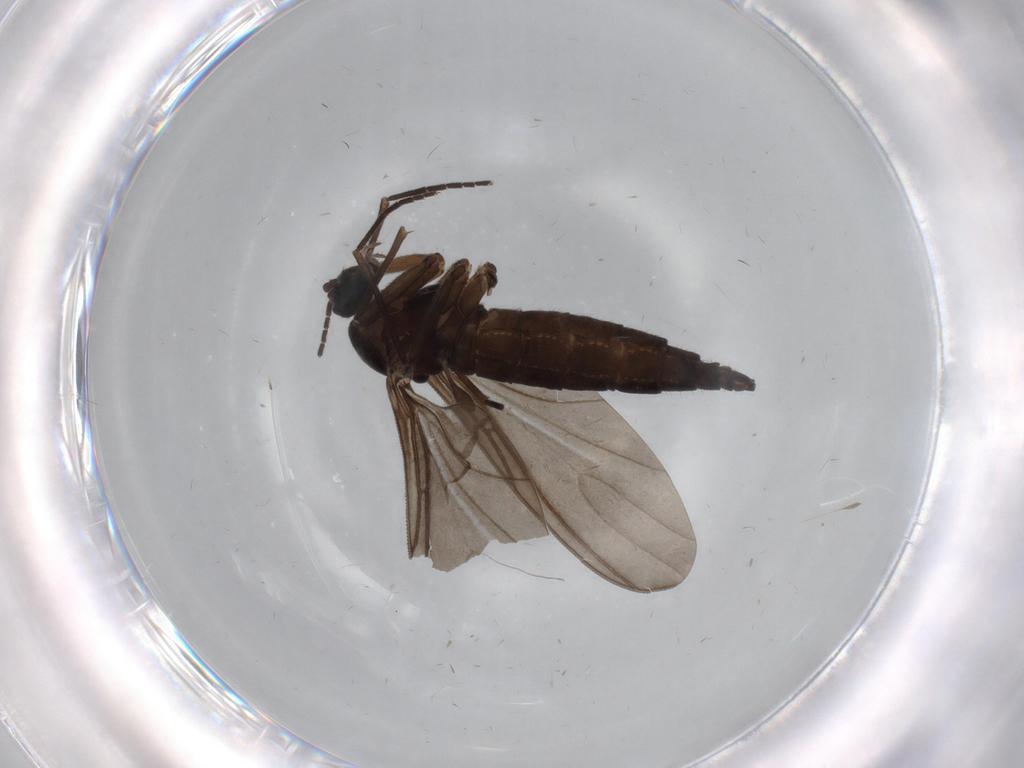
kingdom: Animalia
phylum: Arthropoda
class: Insecta
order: Diptera
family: Sciaridae
